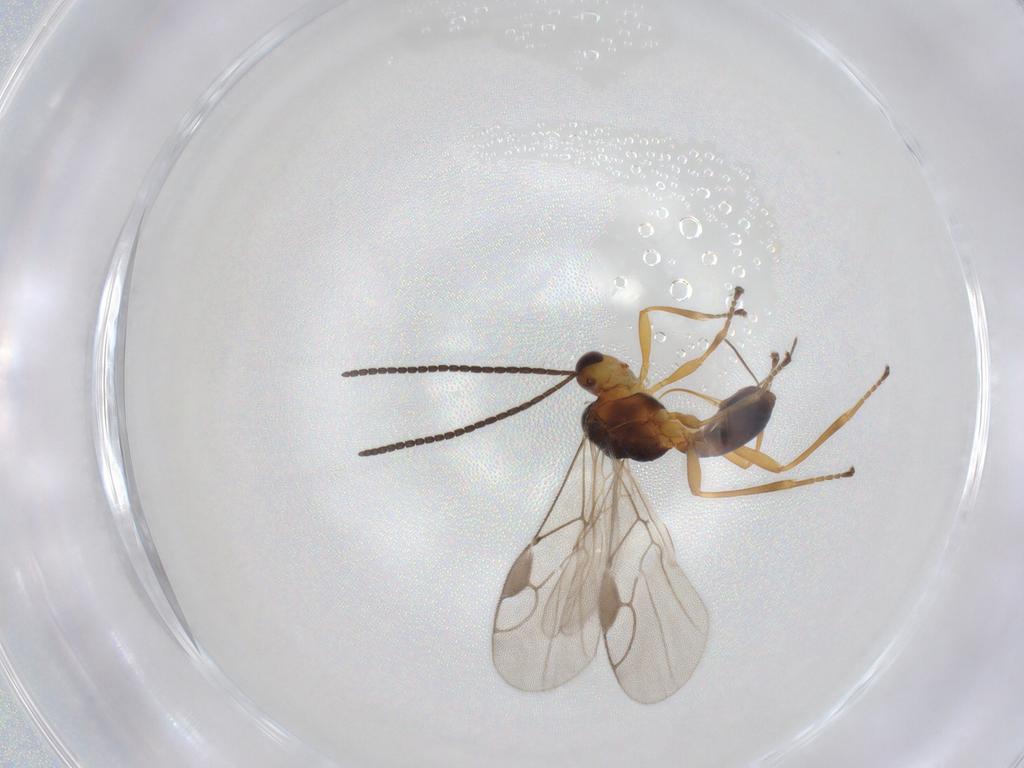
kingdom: Animalia
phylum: Arthropoda
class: Insecta
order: Hymenoptera
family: Braconidae
